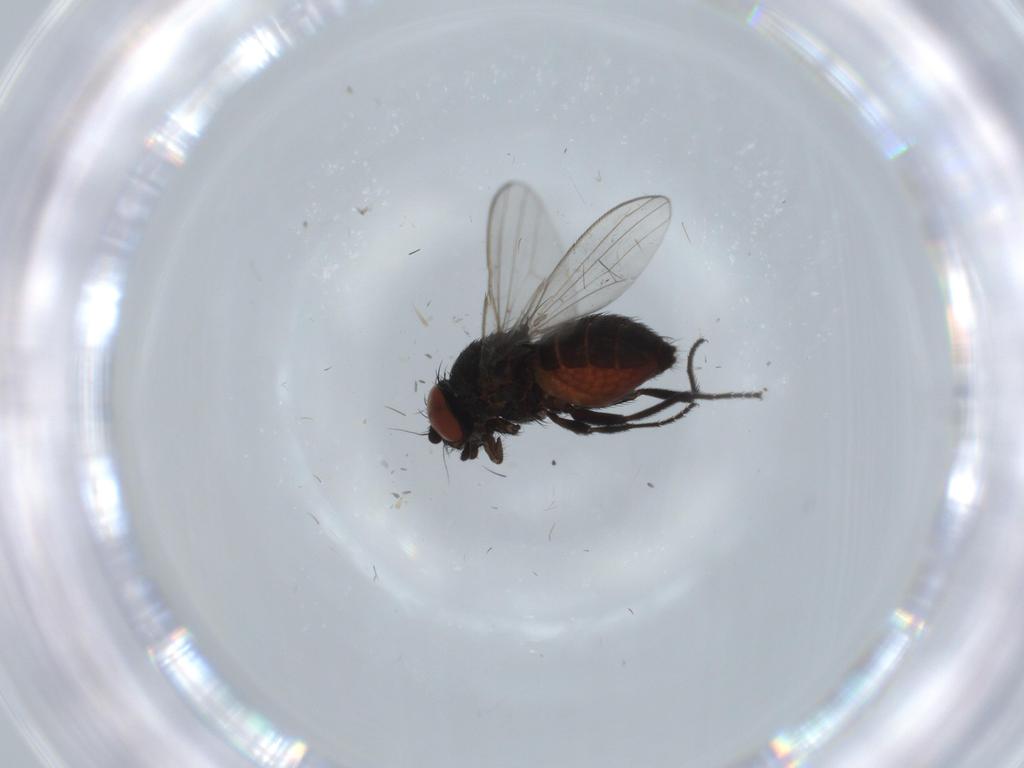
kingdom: Animalia
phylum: Arthropoda
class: Insecta
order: Diptera
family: Milichiidae
